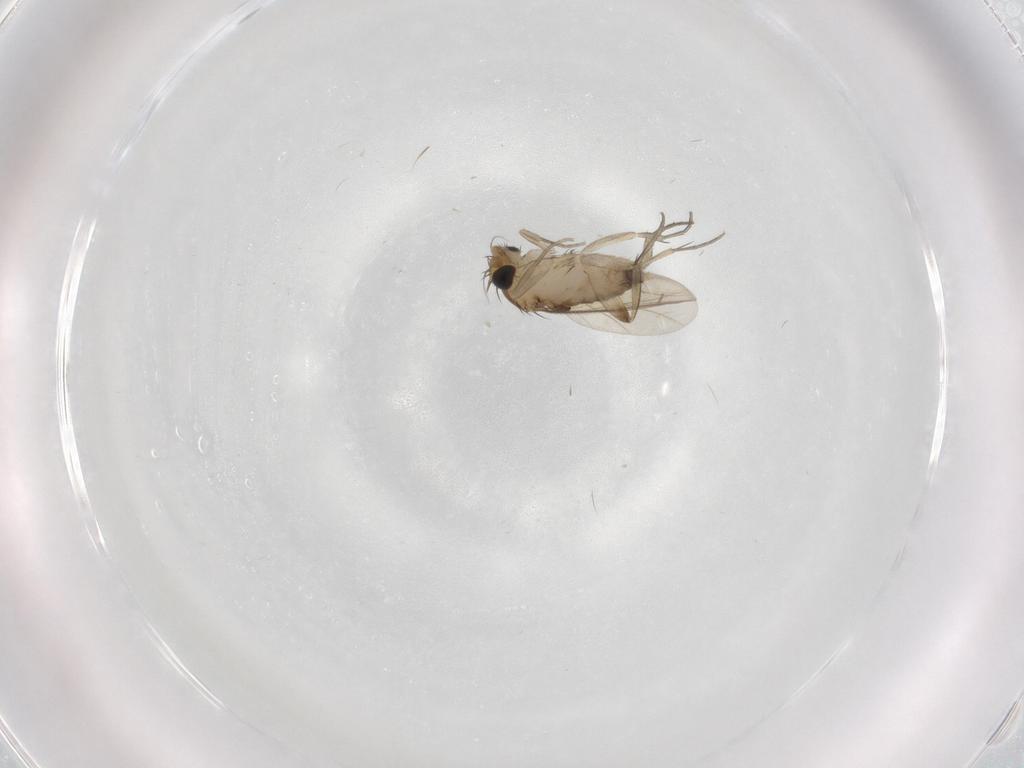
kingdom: Animalia
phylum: Arthropoda
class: Insecta
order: Diptera
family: Phoridae
